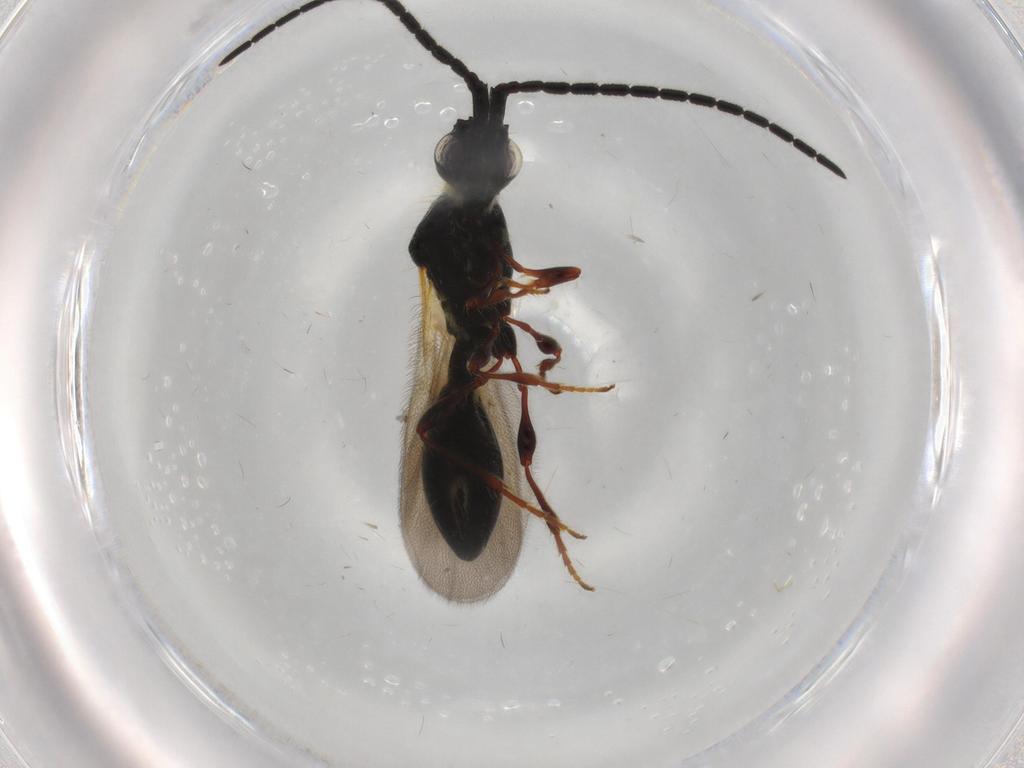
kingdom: Animalia
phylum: Arthropoda
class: Insecta
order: Hymenoptera
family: Diapriidae
